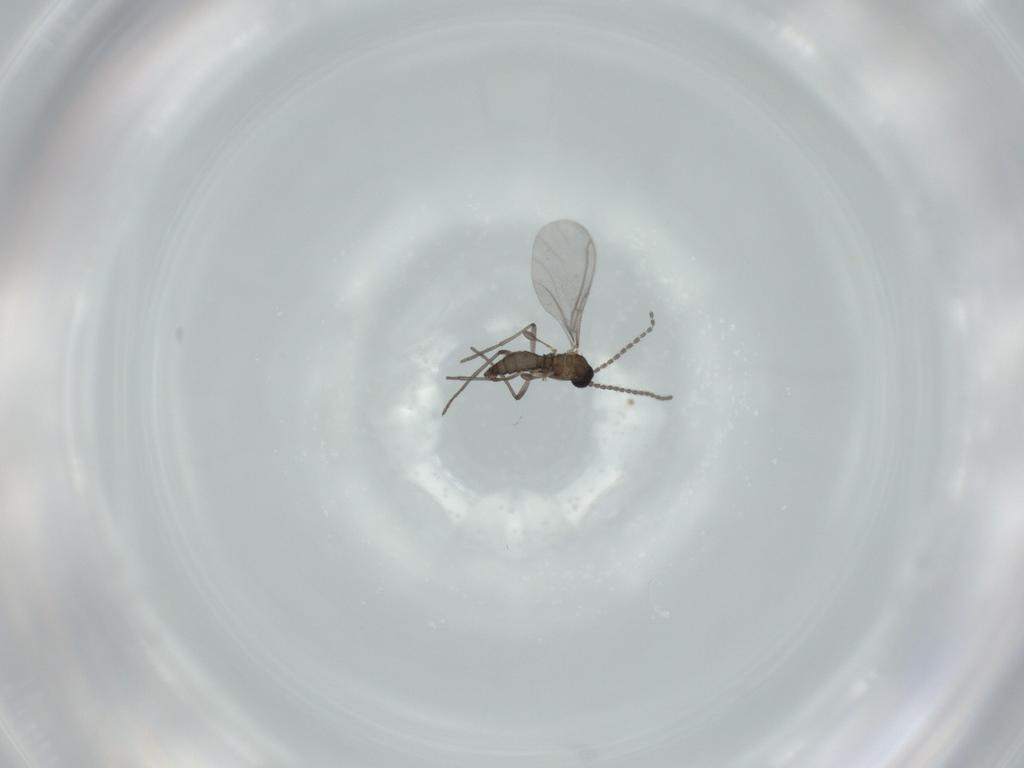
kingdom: Animalia
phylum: Arthropoda
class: Insecta
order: Diptera
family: Sciaridae
